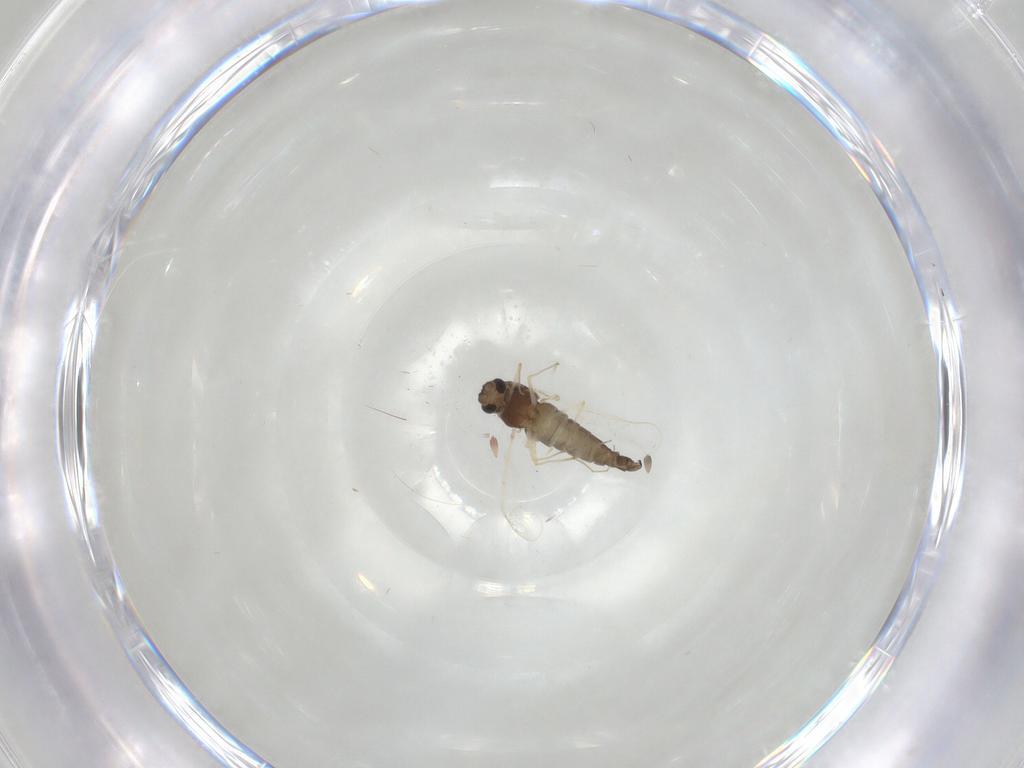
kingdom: Animalia
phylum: Arthropoda
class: Insecta
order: Diptera
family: Chironomidae
